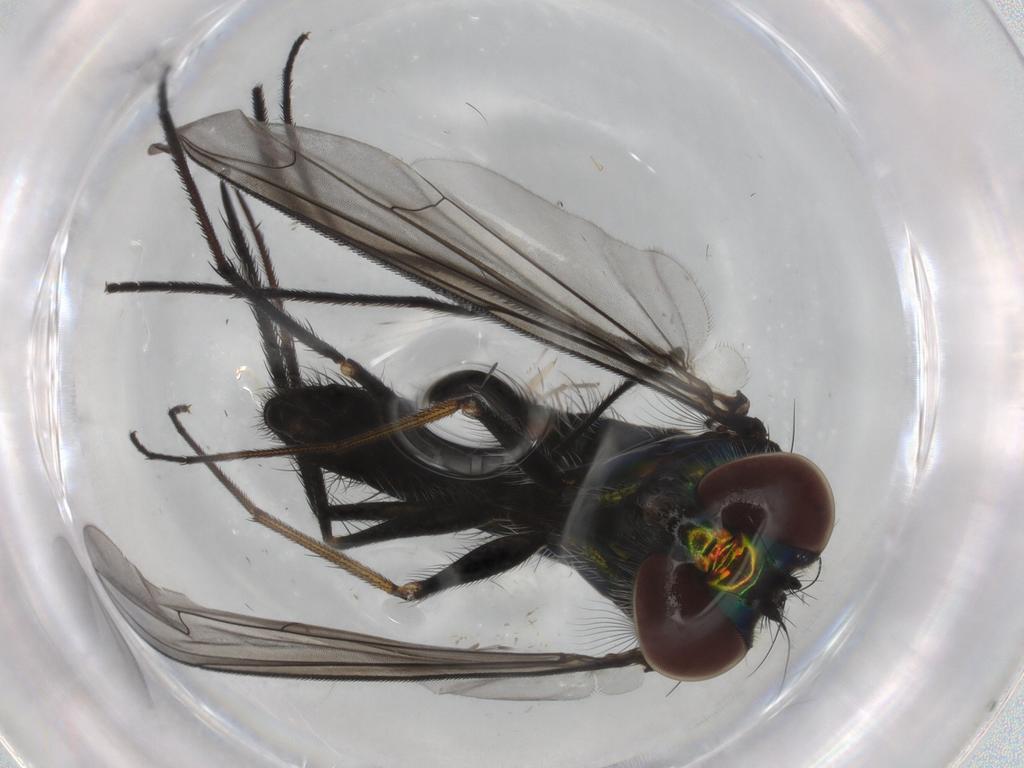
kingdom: Animalia
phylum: Arthropoda
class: Insecta
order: Diptera
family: Dolichopodidae
